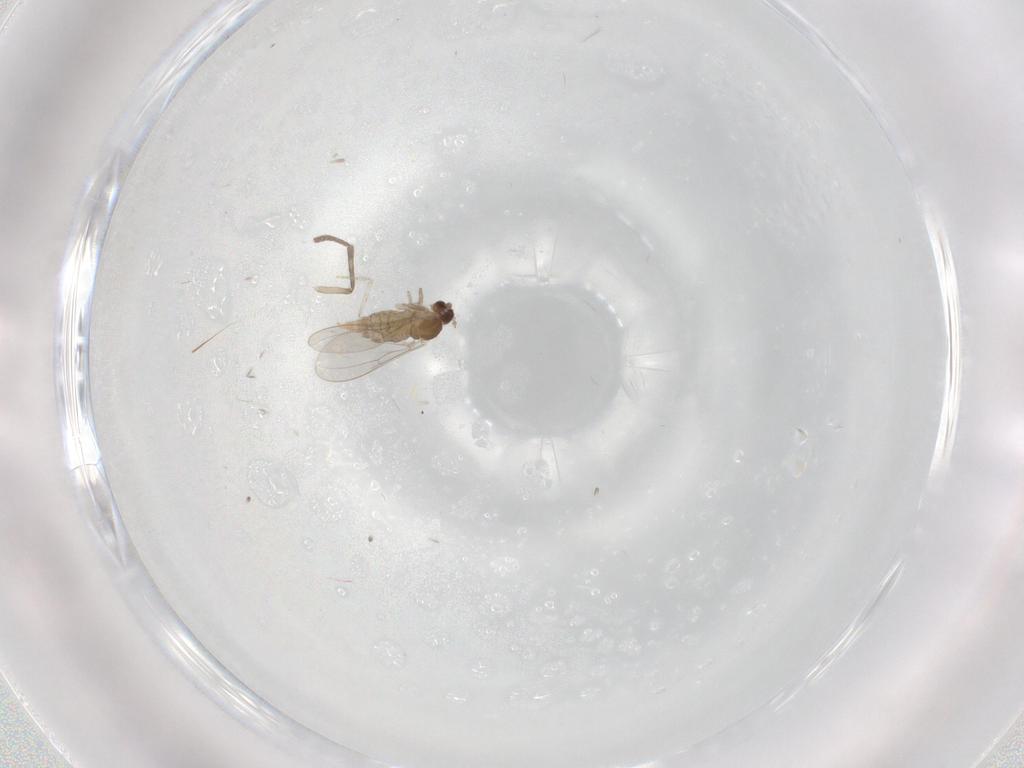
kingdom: Animalia
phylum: Arthropoda
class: Insecta
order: Diptera
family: Psychodidae
